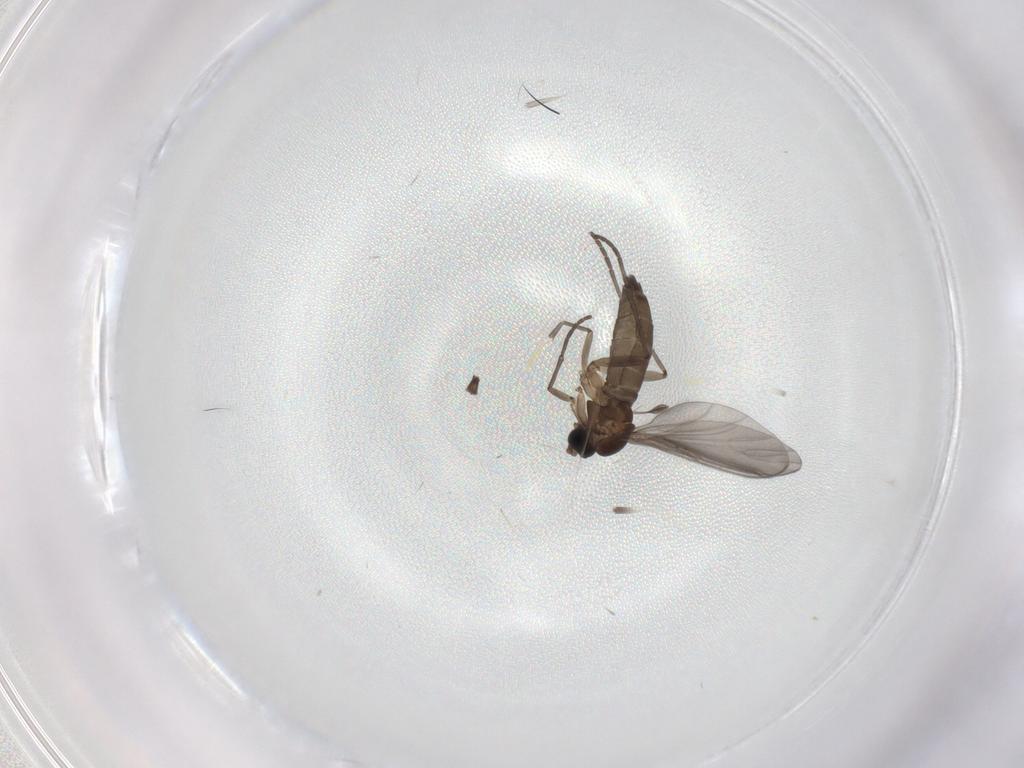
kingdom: Animalia
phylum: Arthropoda
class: Insecta
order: Diptera
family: Sciaridae
